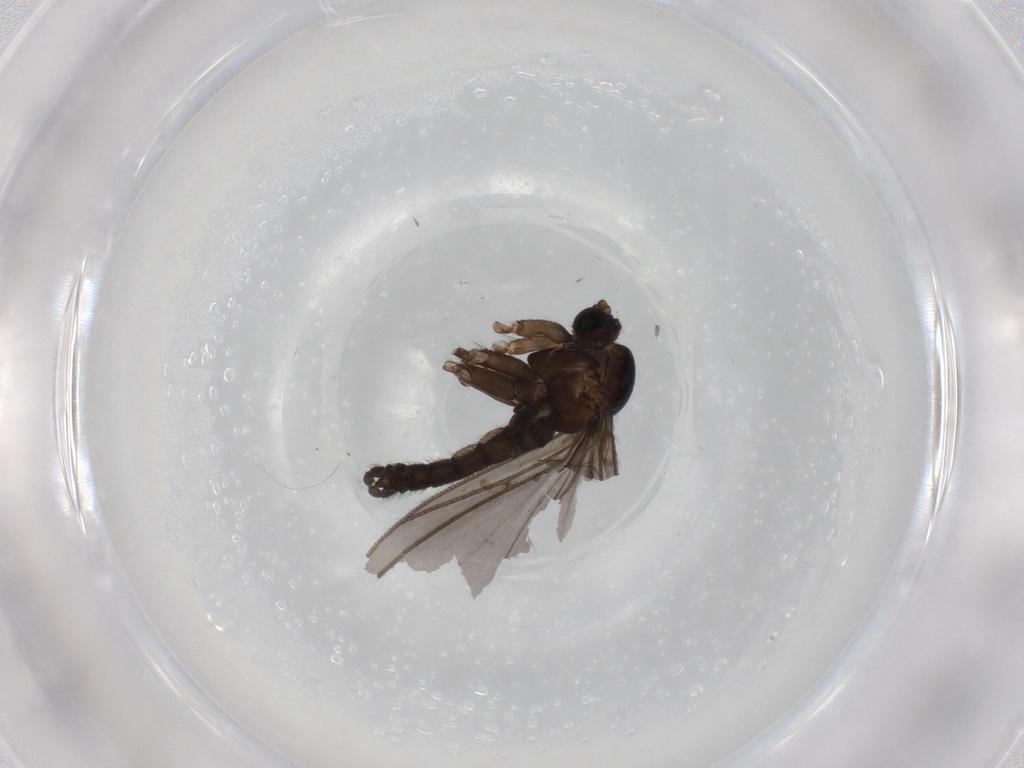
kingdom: Animalia
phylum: Arthropoda
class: Insecta
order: Diptera
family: Sciaridae
